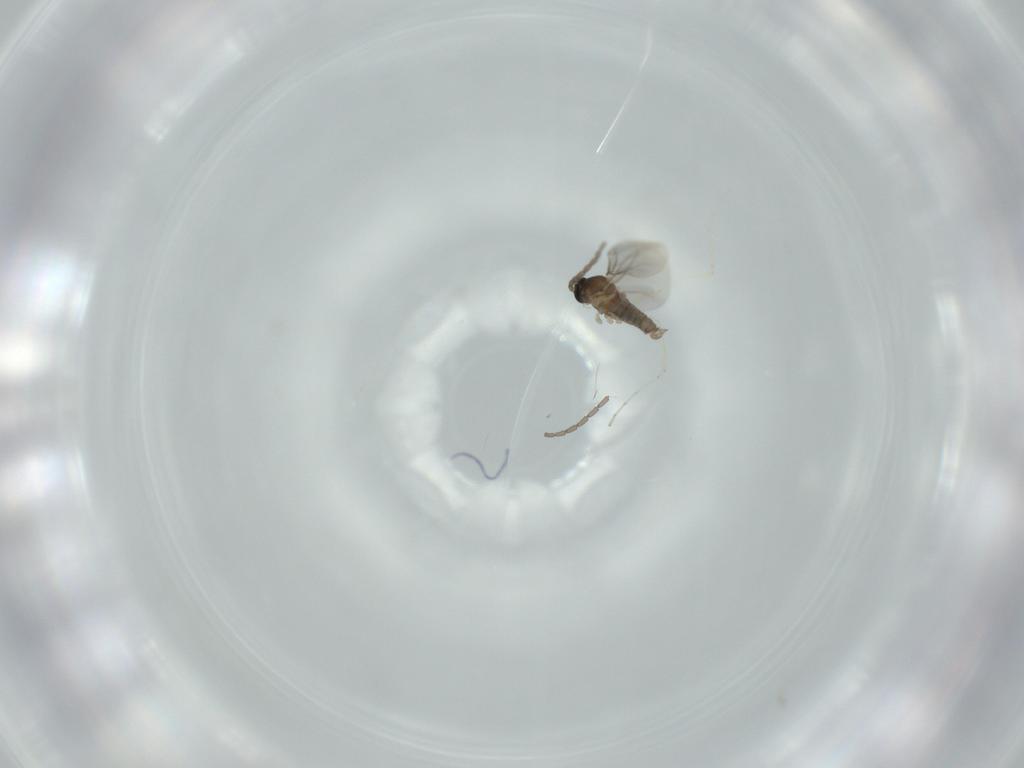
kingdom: Animalia
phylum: Arthropoda
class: Insecta
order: Diptera
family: Cecidomyiidae
